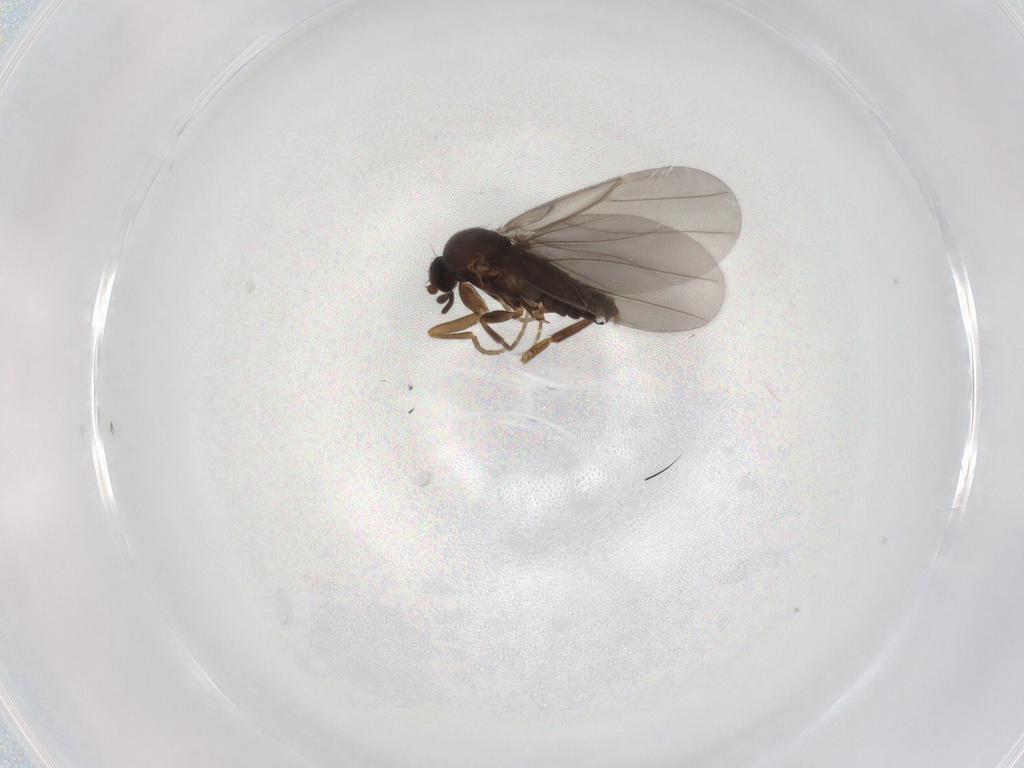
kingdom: Animalia
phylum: Arthropoda
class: Insecta
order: Diptera
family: Sciaridae
